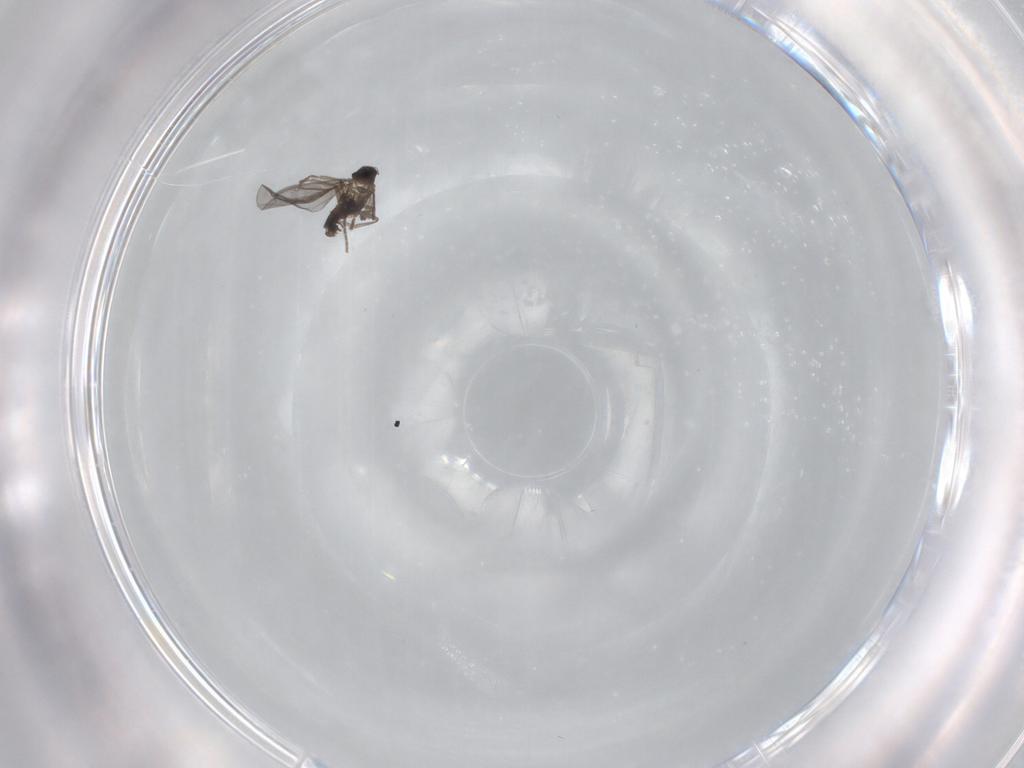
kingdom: Animalia
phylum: Arthropoda
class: Insecta
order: Diptera
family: Phoridae
